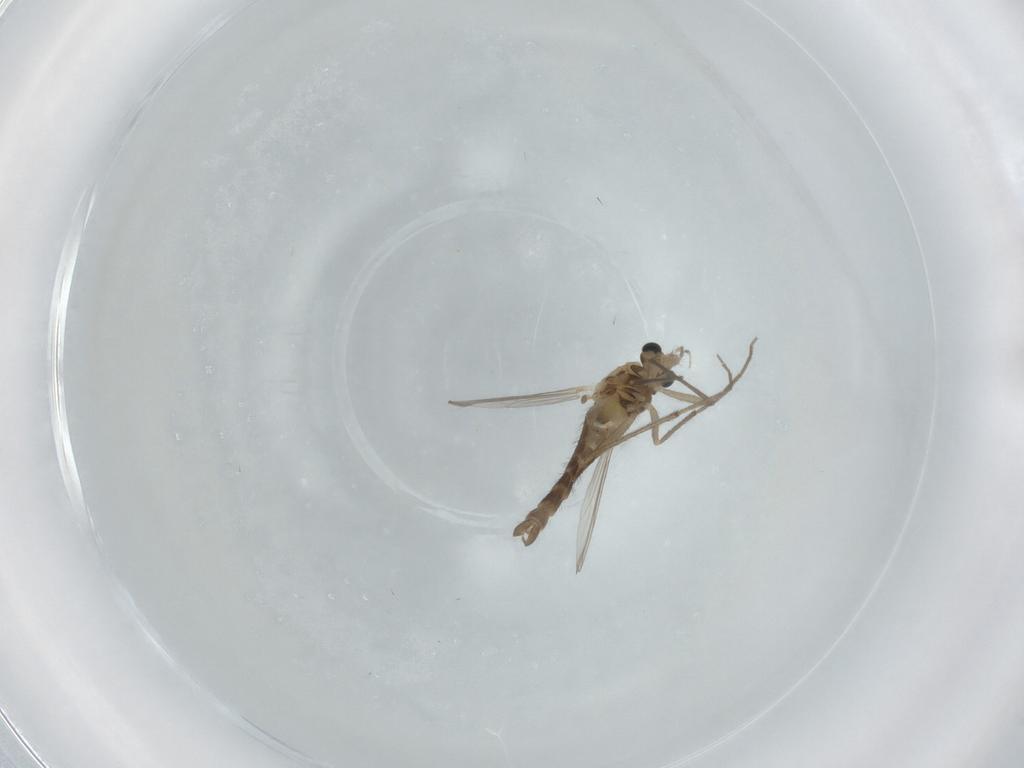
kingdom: Animalia
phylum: Arthropoda
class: Insecta
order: Diptera
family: Chironomidae
